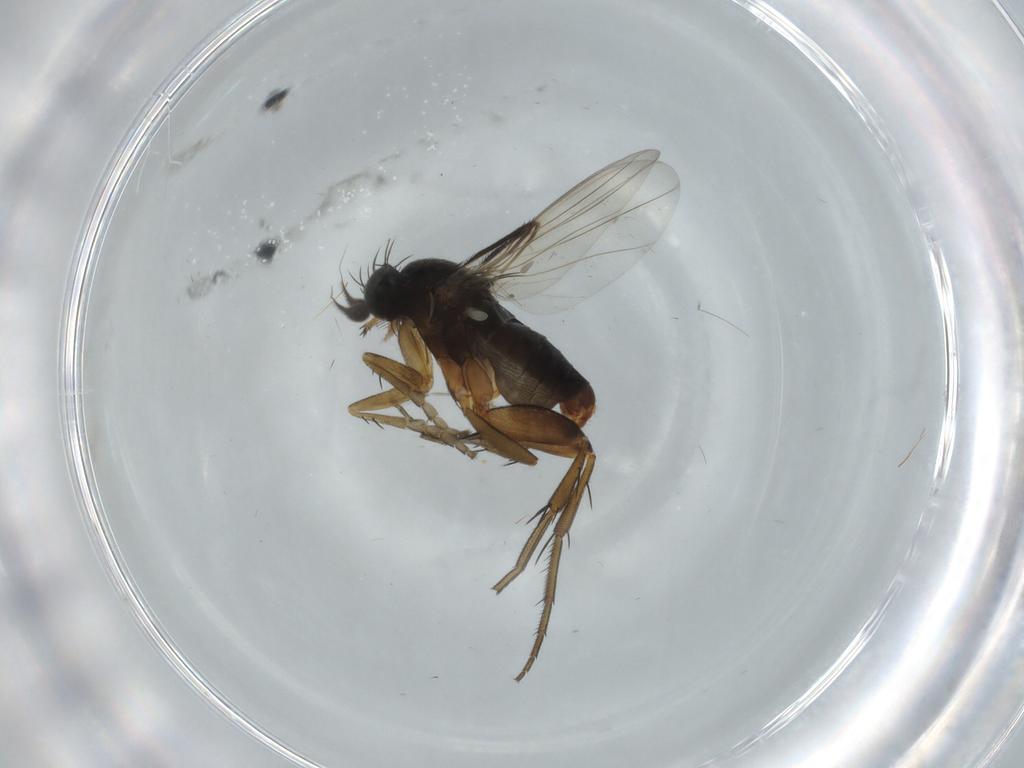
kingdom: Animalia
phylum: Arthropoda
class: Insecta
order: Diptera
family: Phoridae
